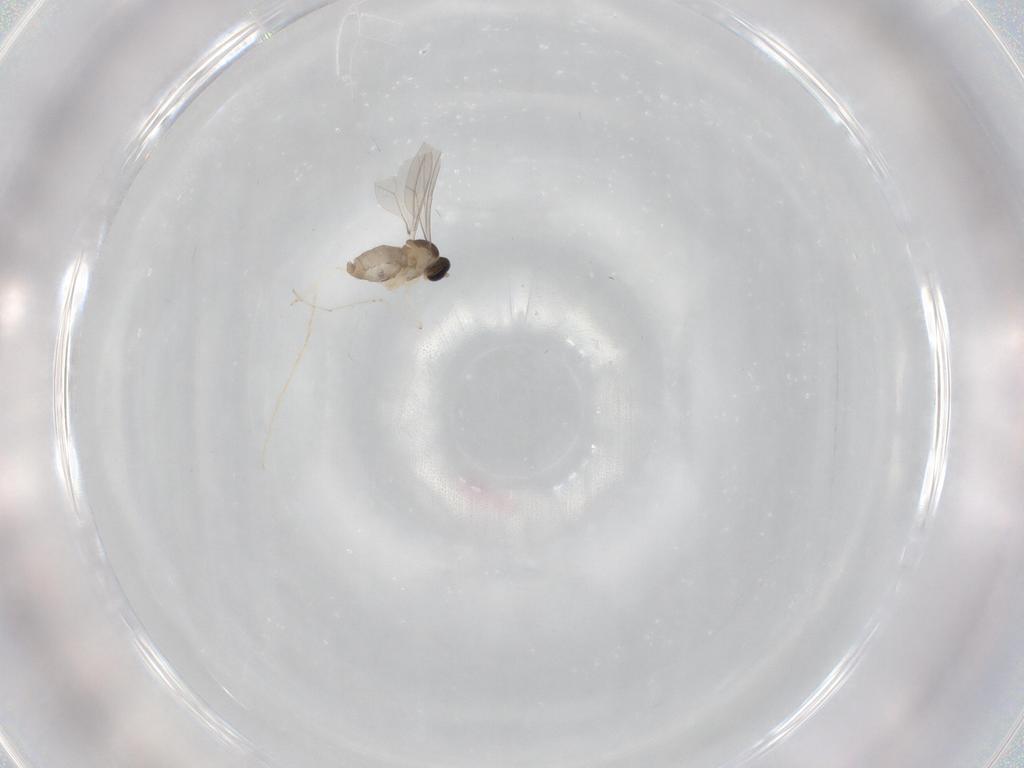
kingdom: Animalia
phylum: Arthropoda
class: Insecta
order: Diptera
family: Cecidomyiidae
